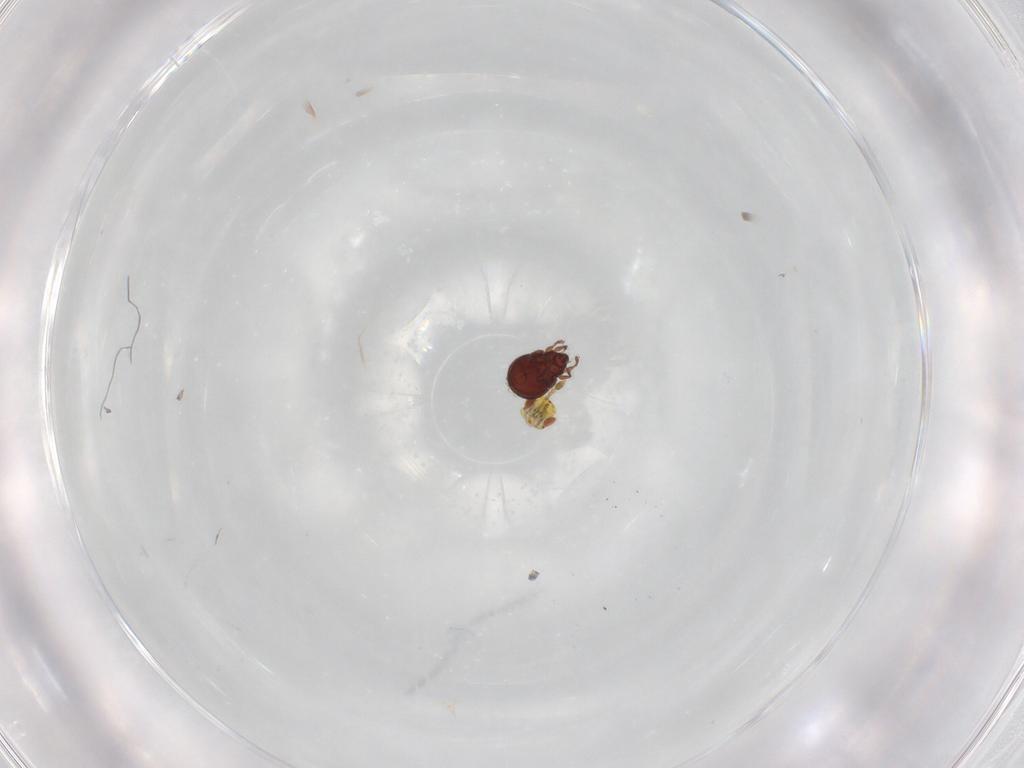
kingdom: Animalia
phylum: Arthropoda
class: Arachnida
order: Sarcoptiformes
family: Scheloribatidae
